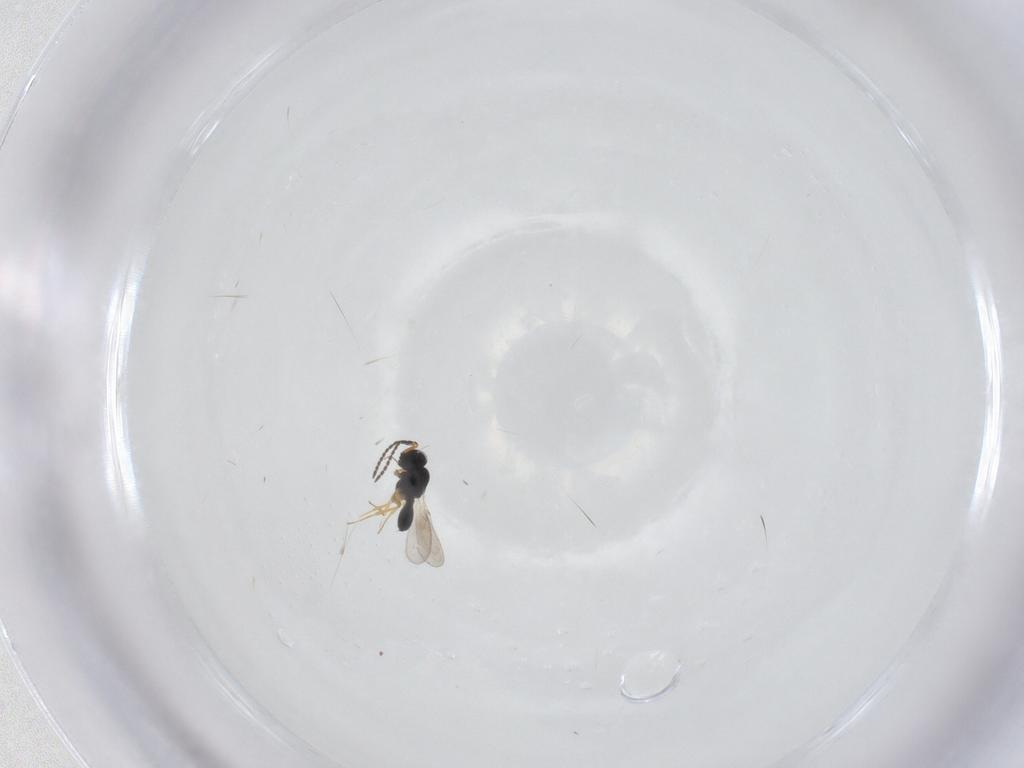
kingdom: Animalia
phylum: Arthropoda
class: Insecta
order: Hymenoptera
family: Scelionidae
